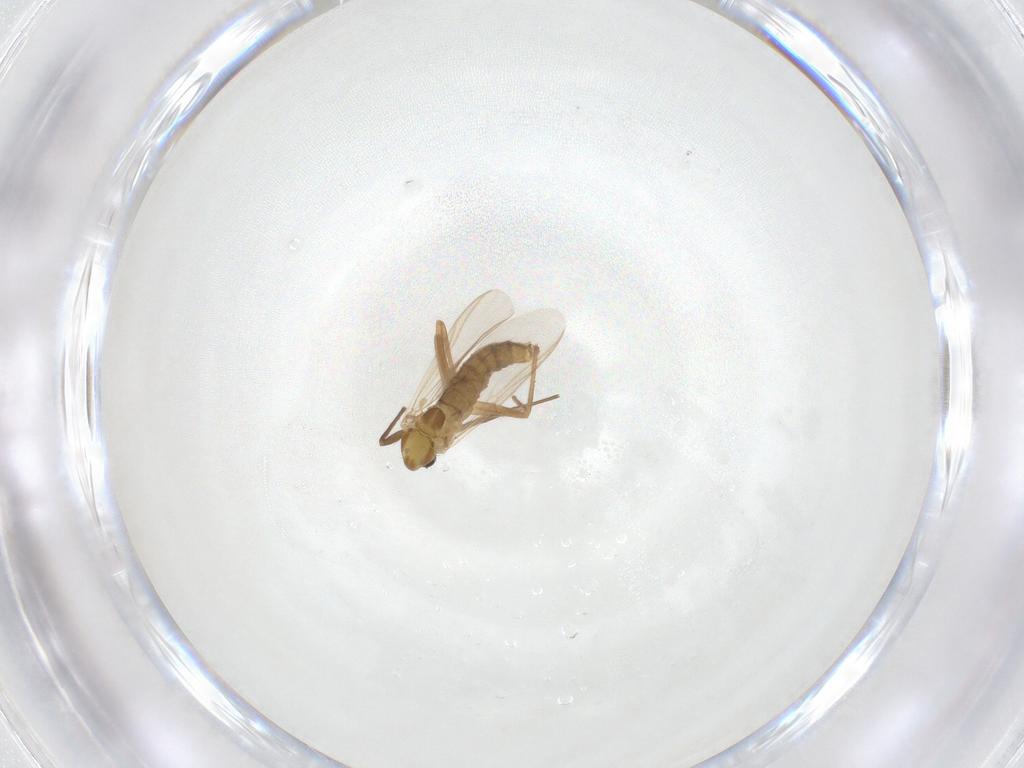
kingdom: Animalia
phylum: Arthropoda
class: Insecta
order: Diptera
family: Chironomidae
